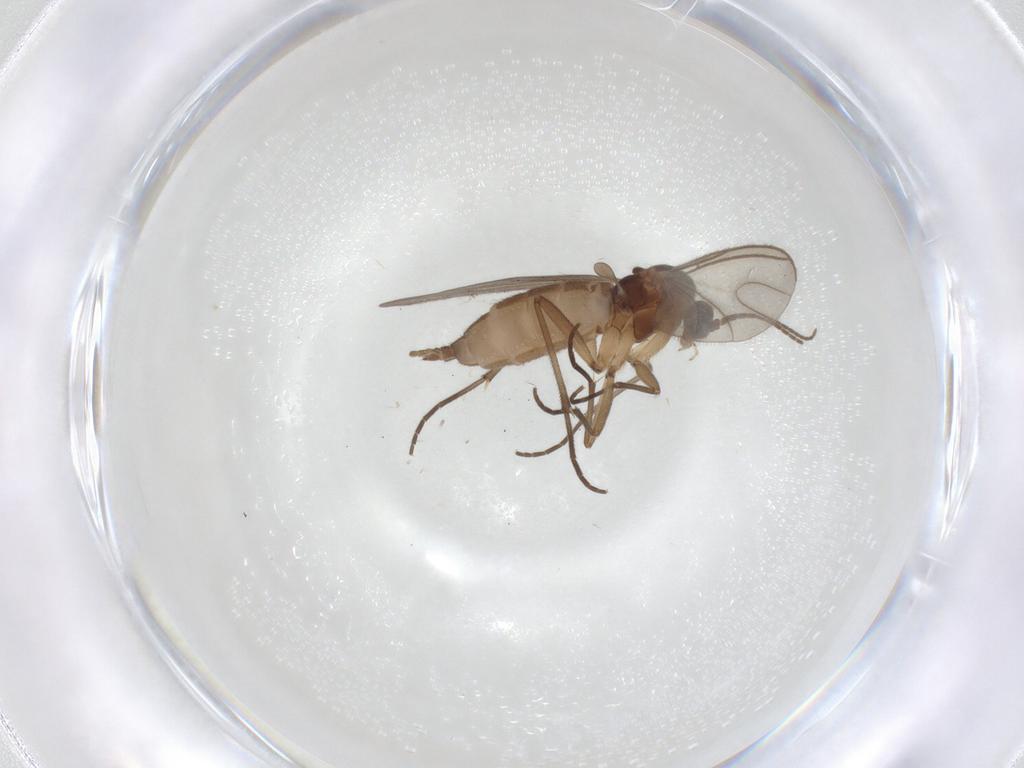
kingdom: Animalia
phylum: Arthropoda
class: Insecta
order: Diptera
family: Sciaridae
